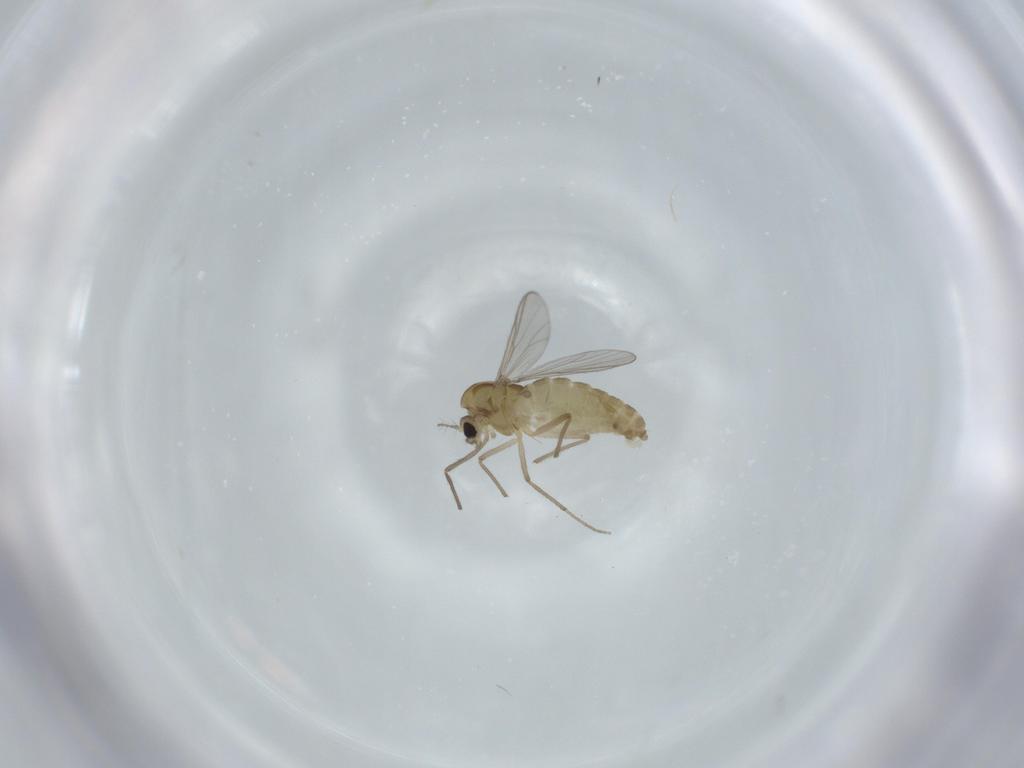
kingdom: Animalia
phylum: Arthropoda
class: Insecta
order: Diptera
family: Chironomidae
